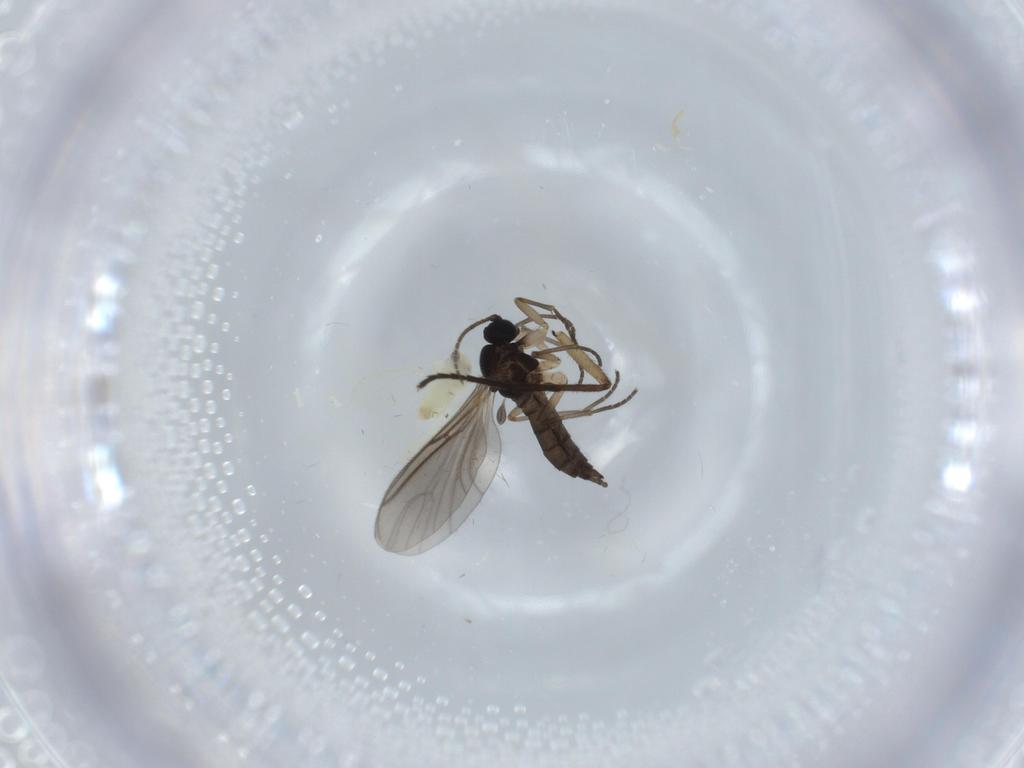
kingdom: Animalia
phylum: Arthropoda
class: Insecta
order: Diptera
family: Sciaridae
